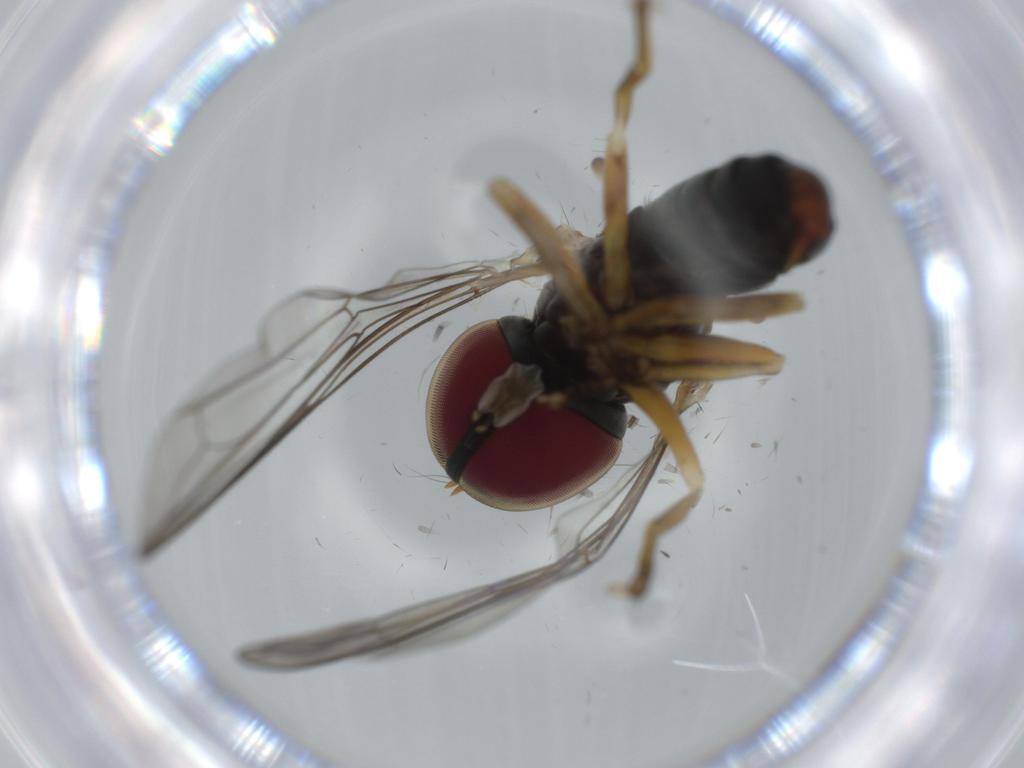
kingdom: Animalia
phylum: Arthropoda
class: Insecta
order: Diptera
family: Pipunculidae
